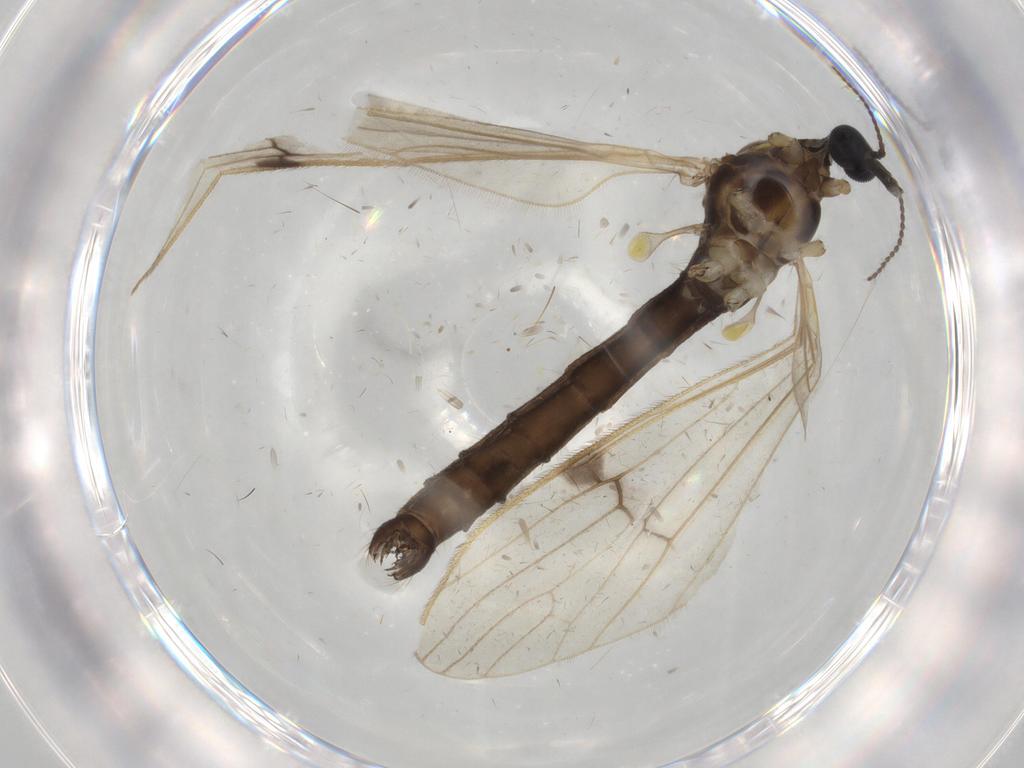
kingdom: Animalia
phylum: Arthropoda
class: Insecta
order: Diptera
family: Limoniidae
